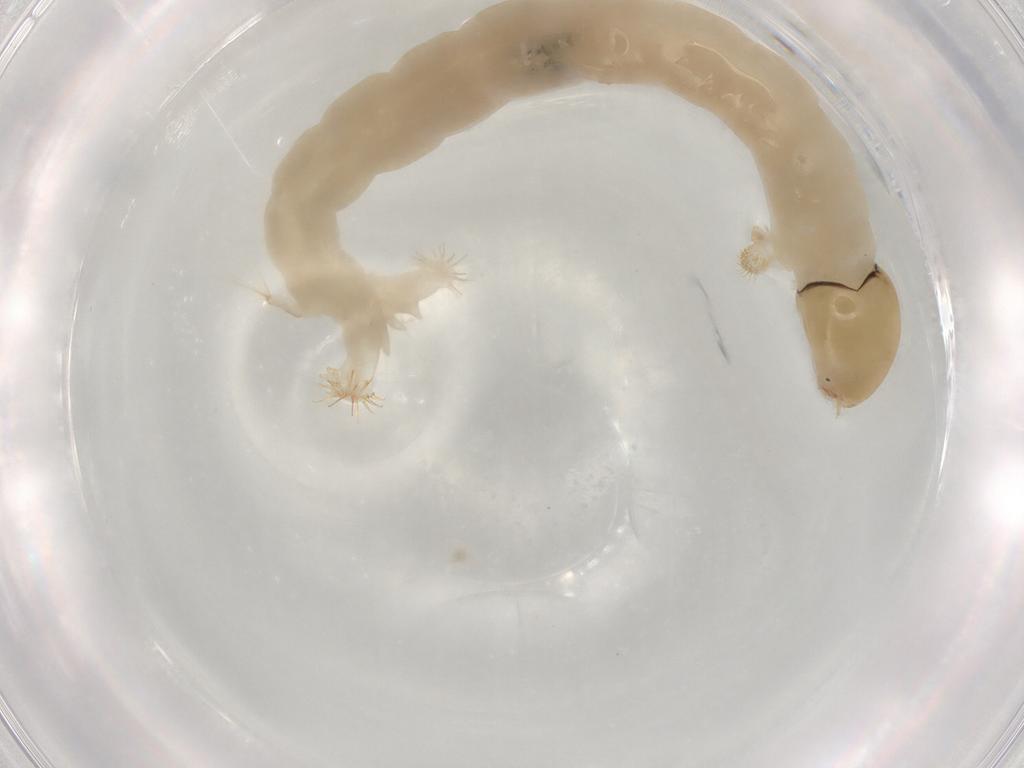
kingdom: Animalia
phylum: Arthropoda
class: Insecta
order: Diptera
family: Chironomidae
